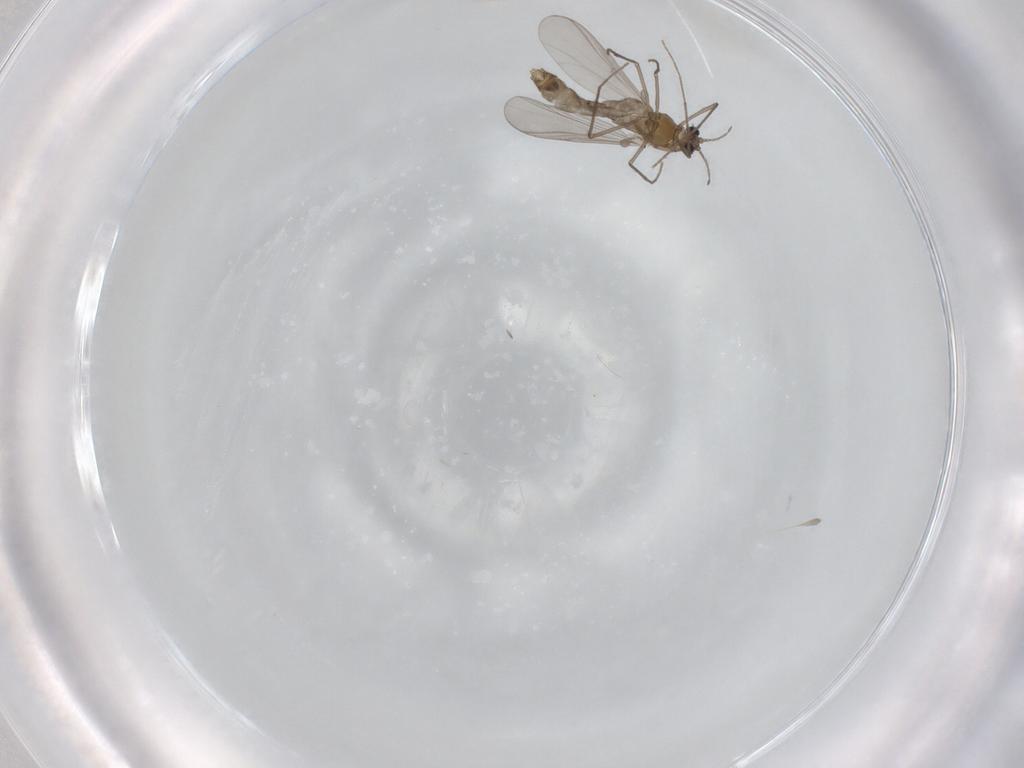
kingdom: Animalia
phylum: Arthropoda
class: Insecta
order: Diptera
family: Chironomidae
